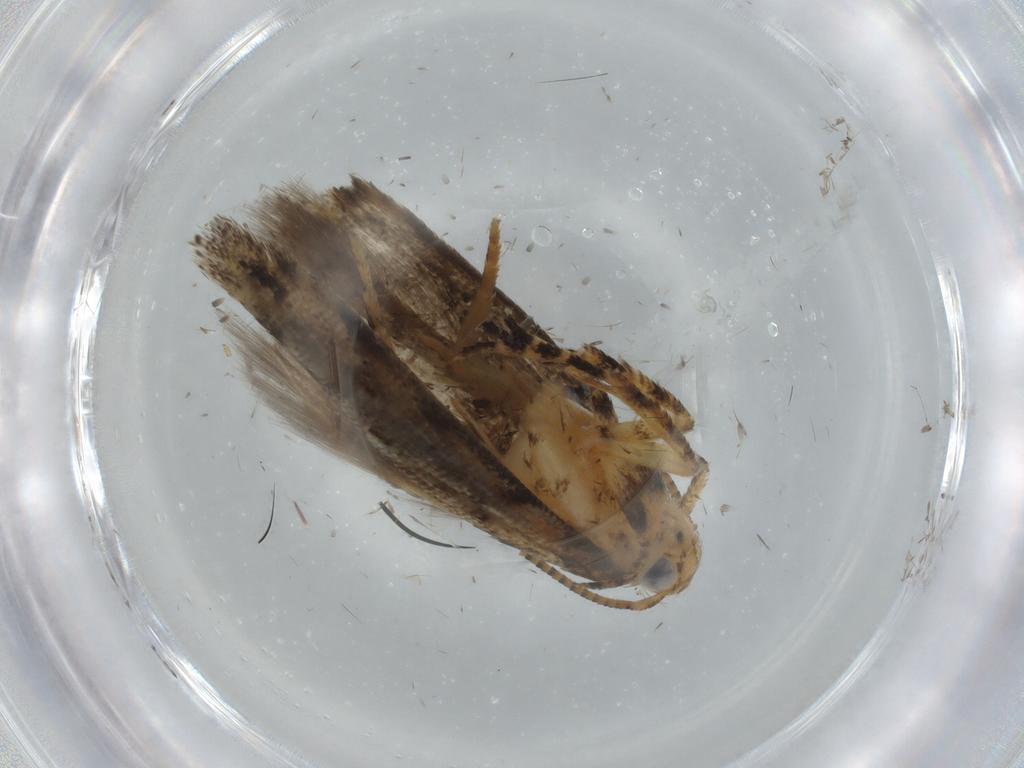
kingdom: Animalia
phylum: Arthropoda
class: Insecta
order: Lepidoptera
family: Gelechiidae
